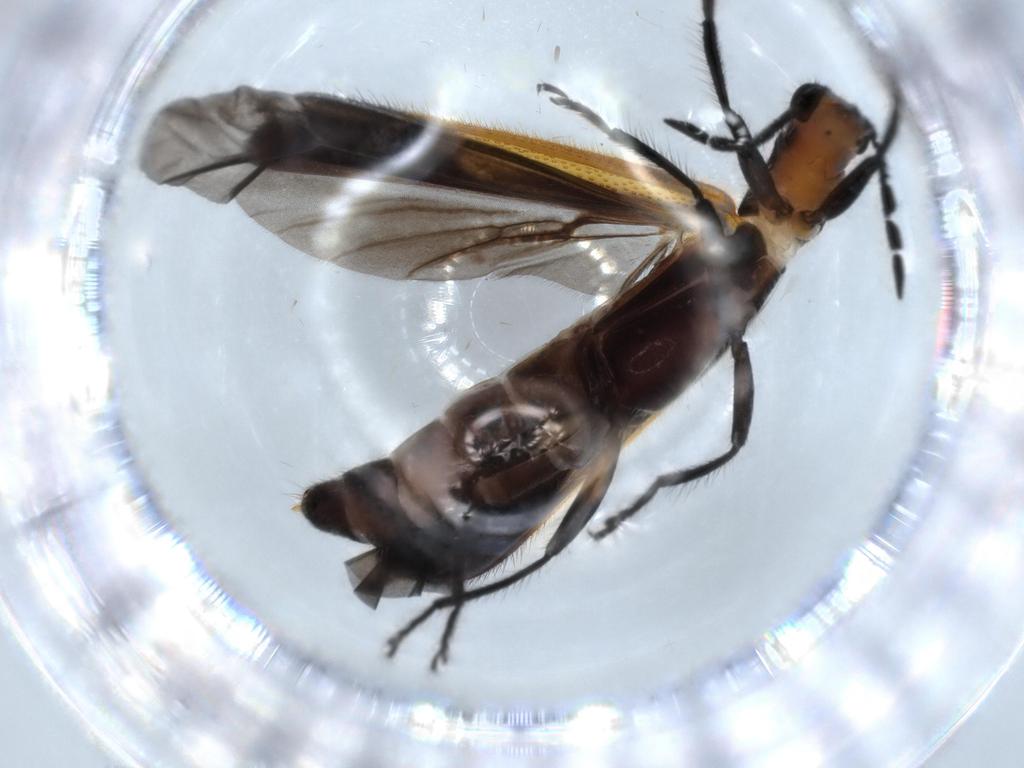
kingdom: Animalia
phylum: Arthropoda
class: Insecta
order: Coleoptera
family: Cleridae
